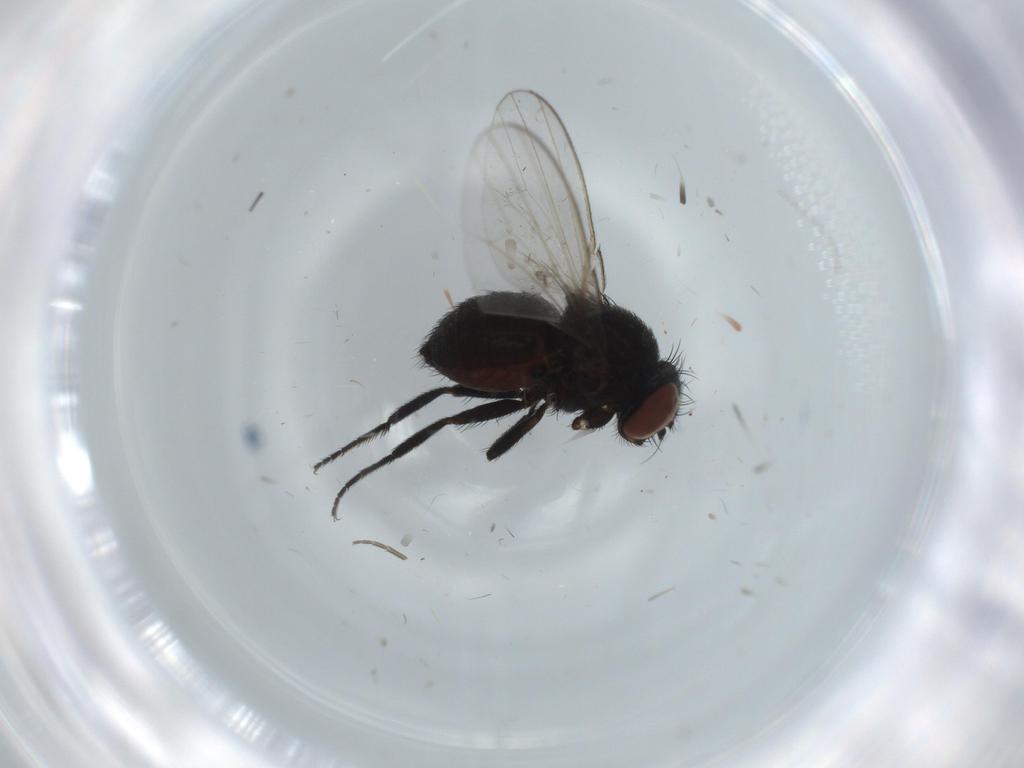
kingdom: Animalia
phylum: Arthropoda
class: Insecta
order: Diptera
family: Milichiidae
